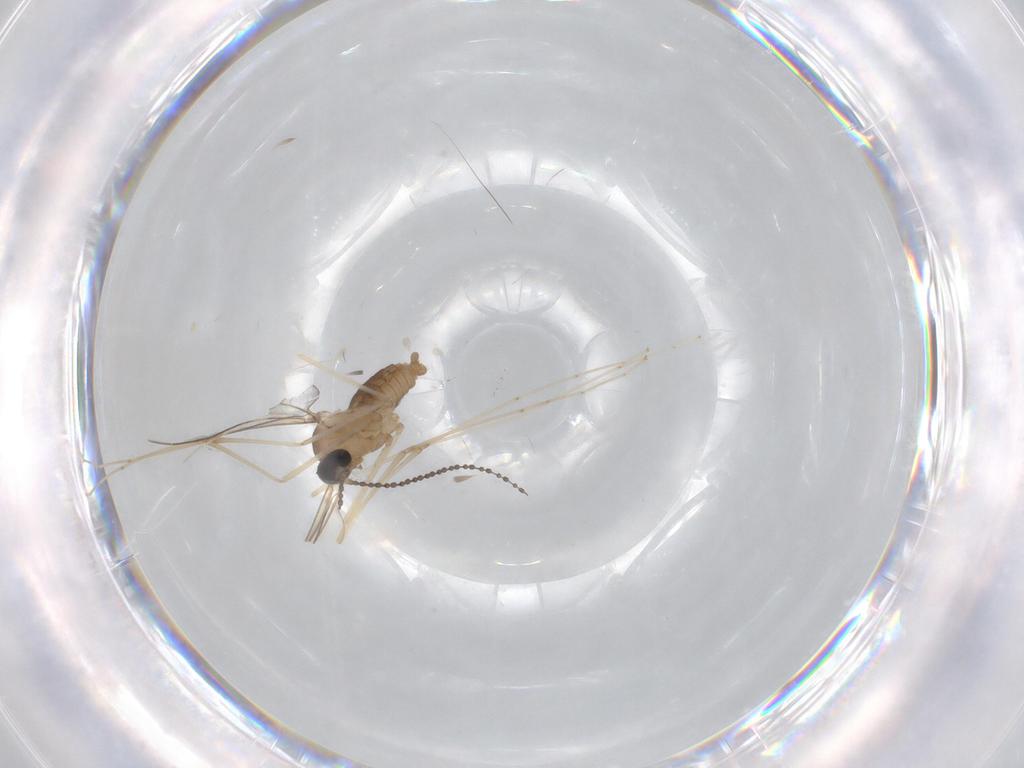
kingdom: Animalia
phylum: Arthropoda
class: Insecta
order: Diptera
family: Cecidomyiidae
